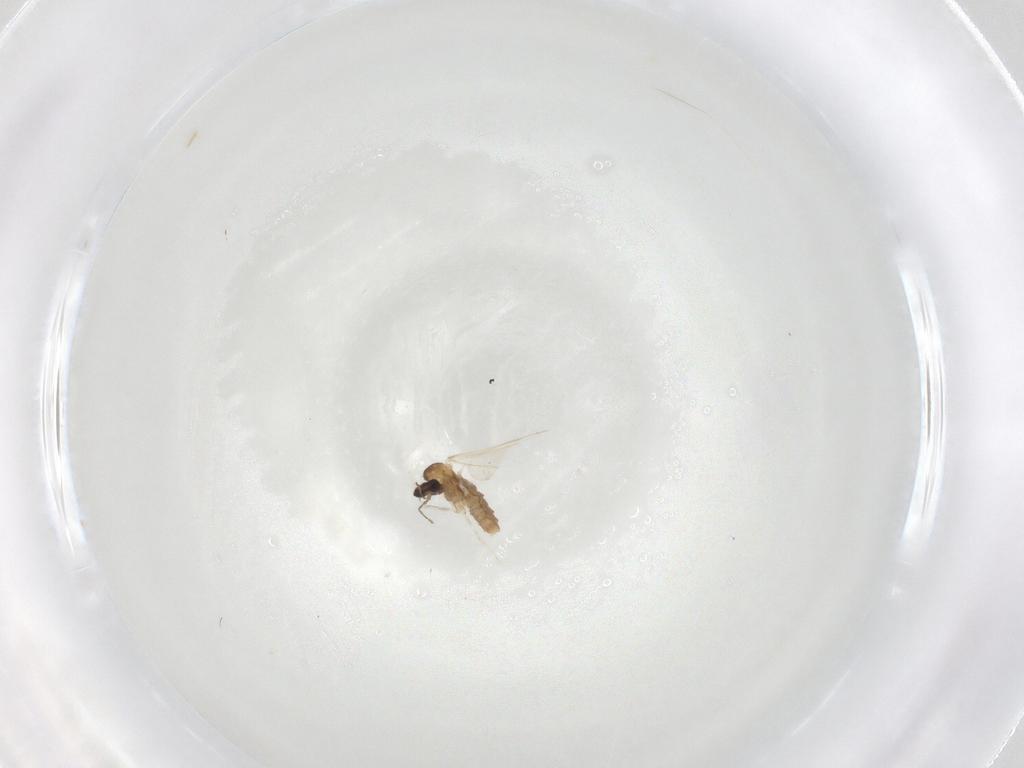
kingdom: Animalia
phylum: Arthropoda
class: Insecta
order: Diptera
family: Cecidomyiidae
